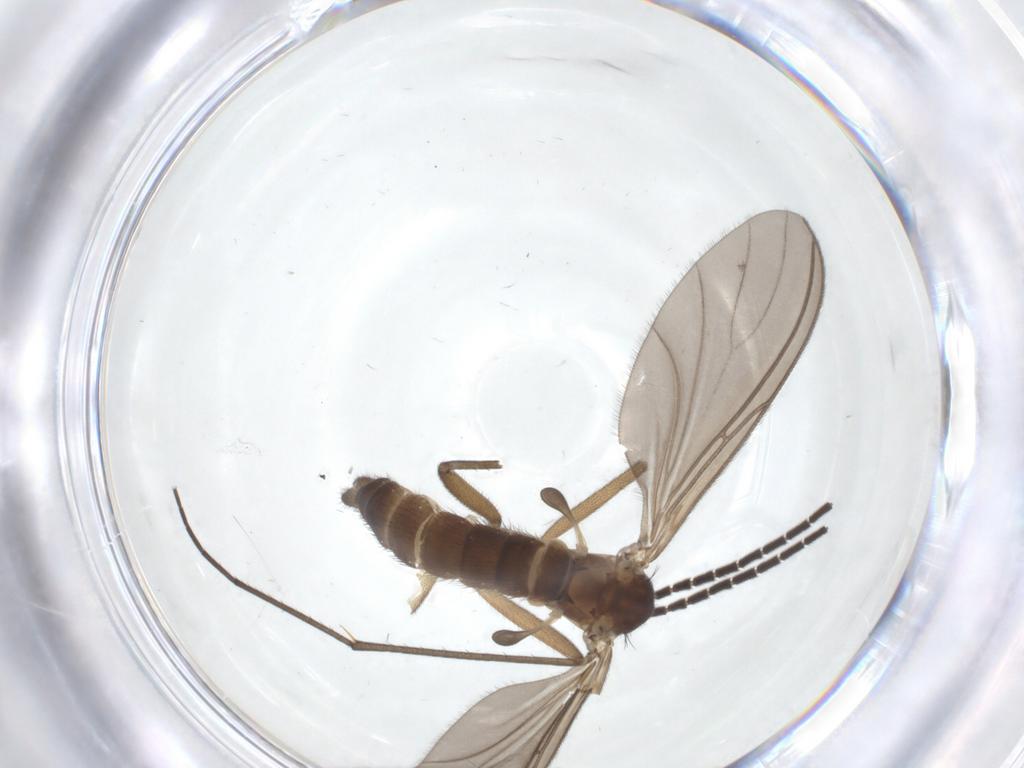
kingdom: Animalia
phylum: Arthropoda
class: Insecta
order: Diptera
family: Sciaridae
